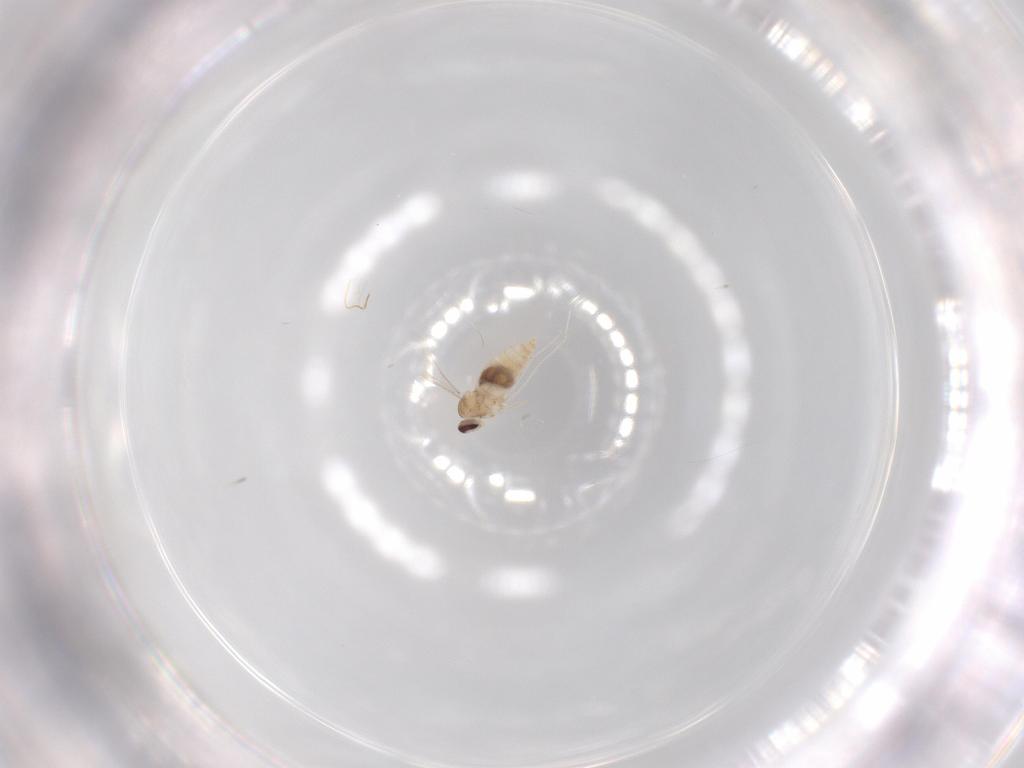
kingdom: Animalia
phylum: Arthropoda
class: Insecta
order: Diptera
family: Cecidomyiidae
